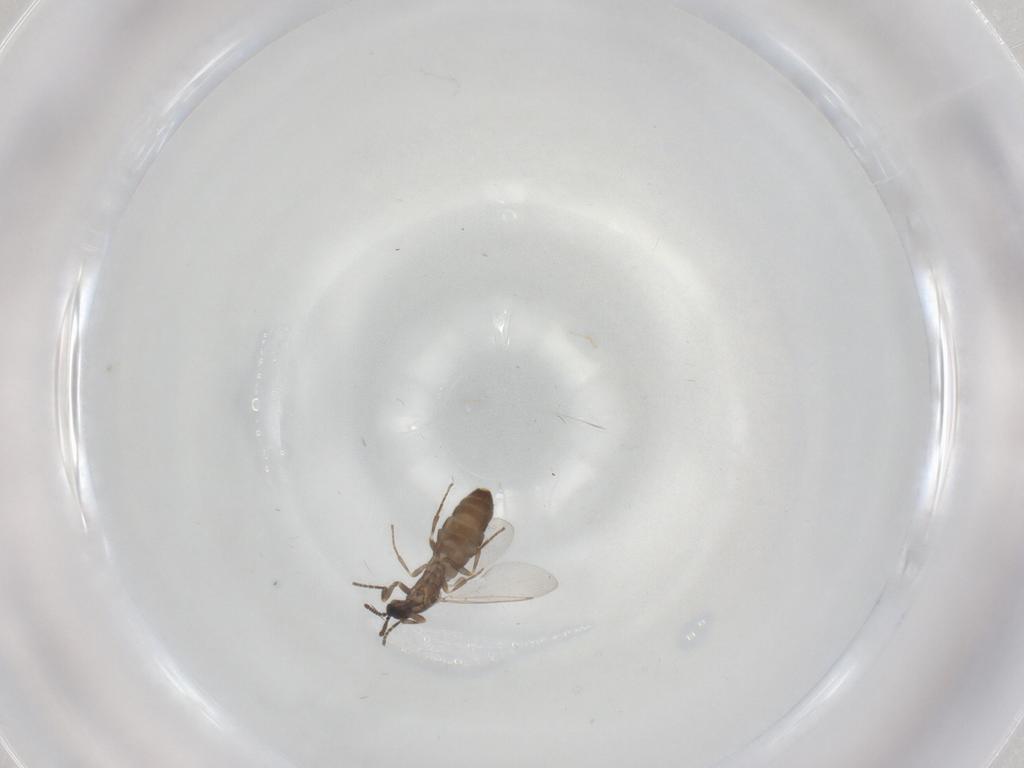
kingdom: Animalia
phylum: Arthropoda
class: Insecta
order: Diptera
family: Scatopsidae
